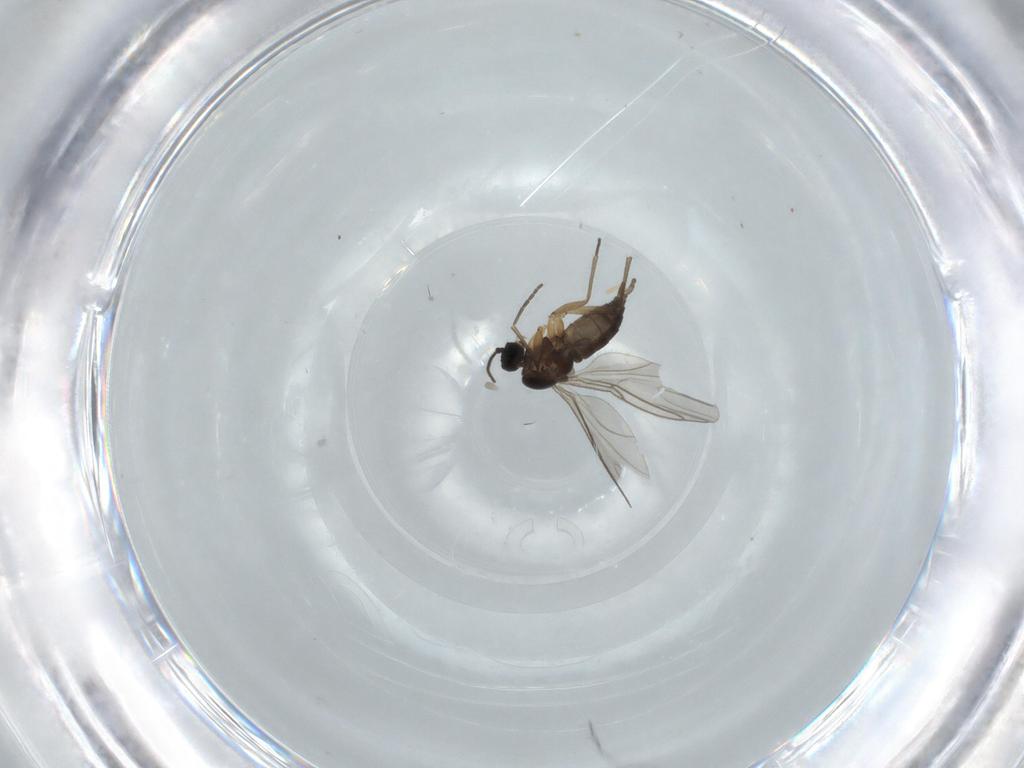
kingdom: Animalia
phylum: Arthropoda
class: Insecta
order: Diptera
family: Sciaridae
